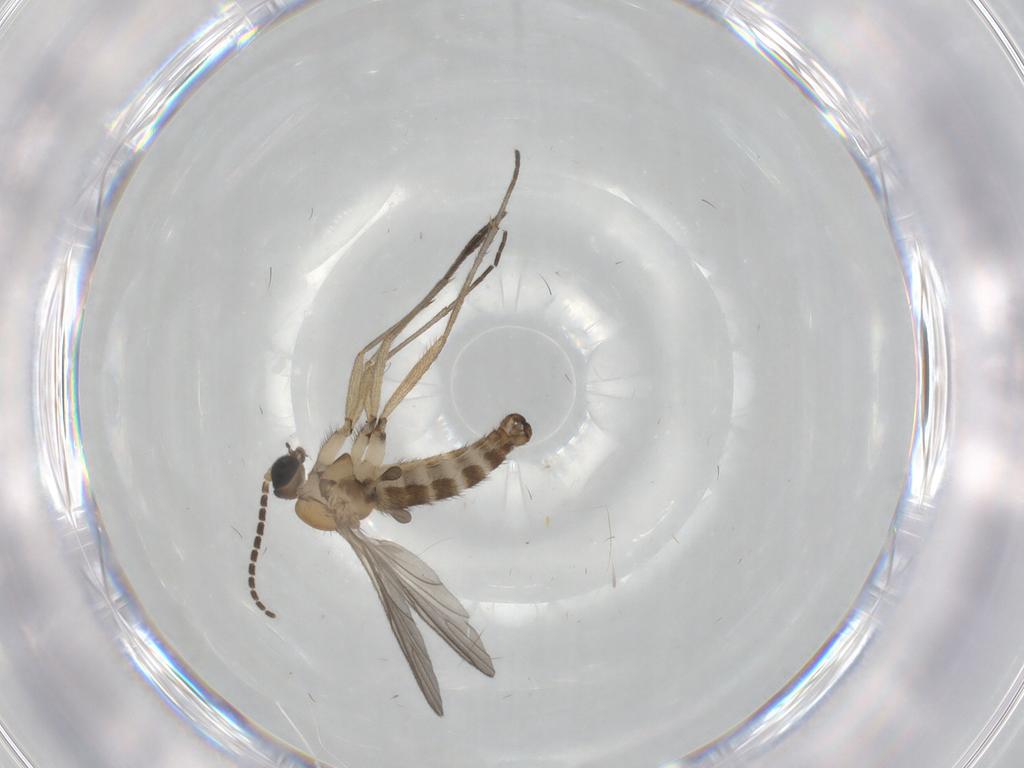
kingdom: Animalia
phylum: Arthropoda
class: Insecta
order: Diptera
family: Sciaridae
